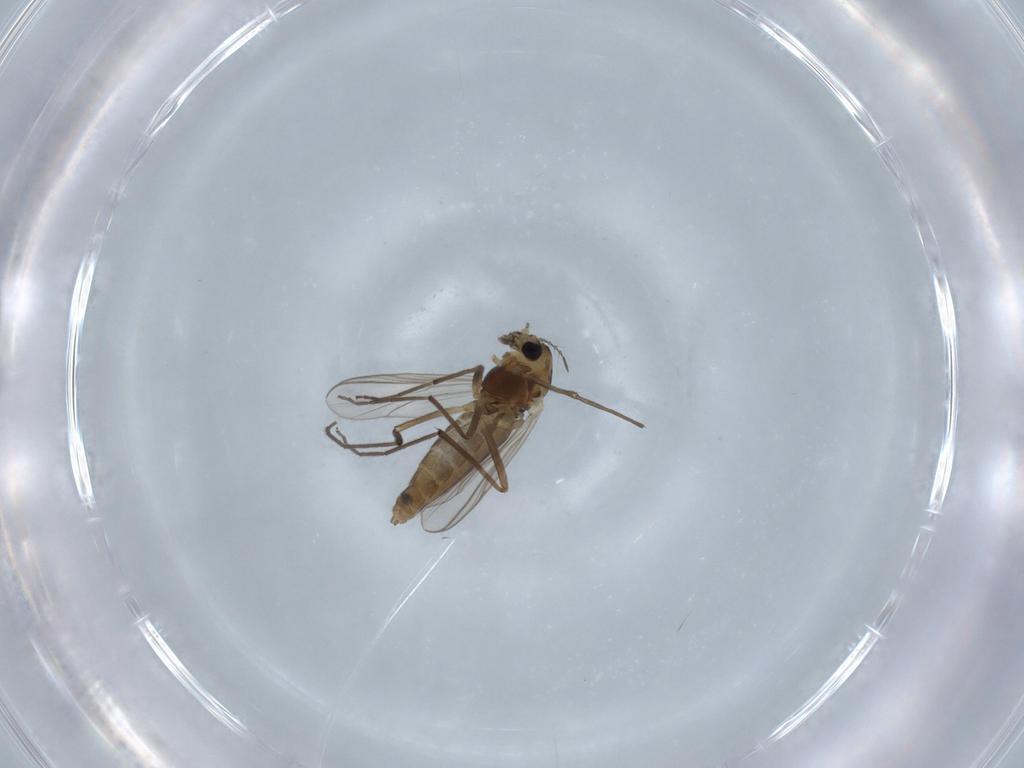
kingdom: Animalia
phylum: Arthropoda
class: Insecta
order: Diptera
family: Chironomidae
